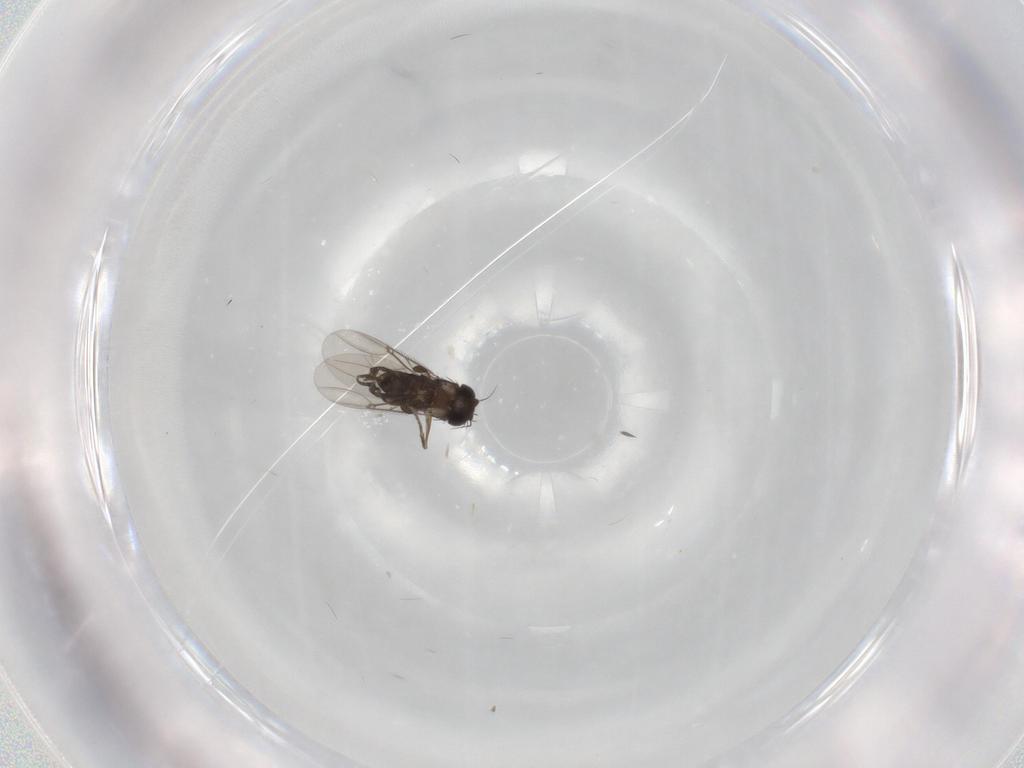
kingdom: Animalia
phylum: Arthropoda
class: Insecta
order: Diptera
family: Phoridae
